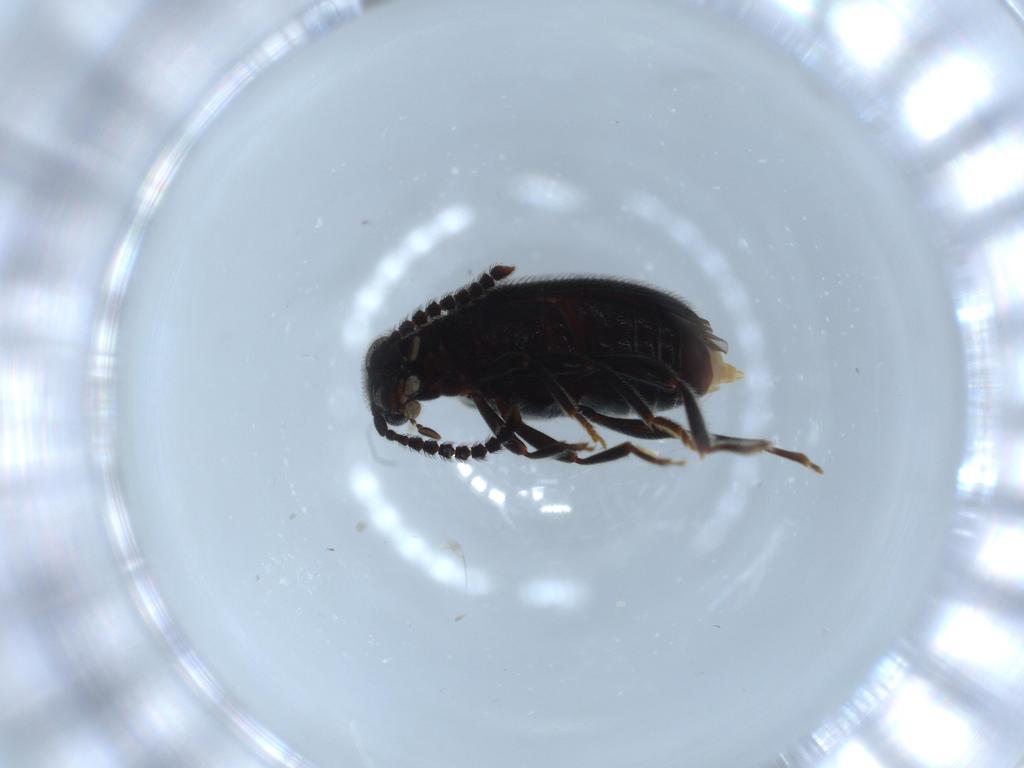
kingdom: Animalia
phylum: Arthropoda
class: Insecta
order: Coleoptera
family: Aderidae
